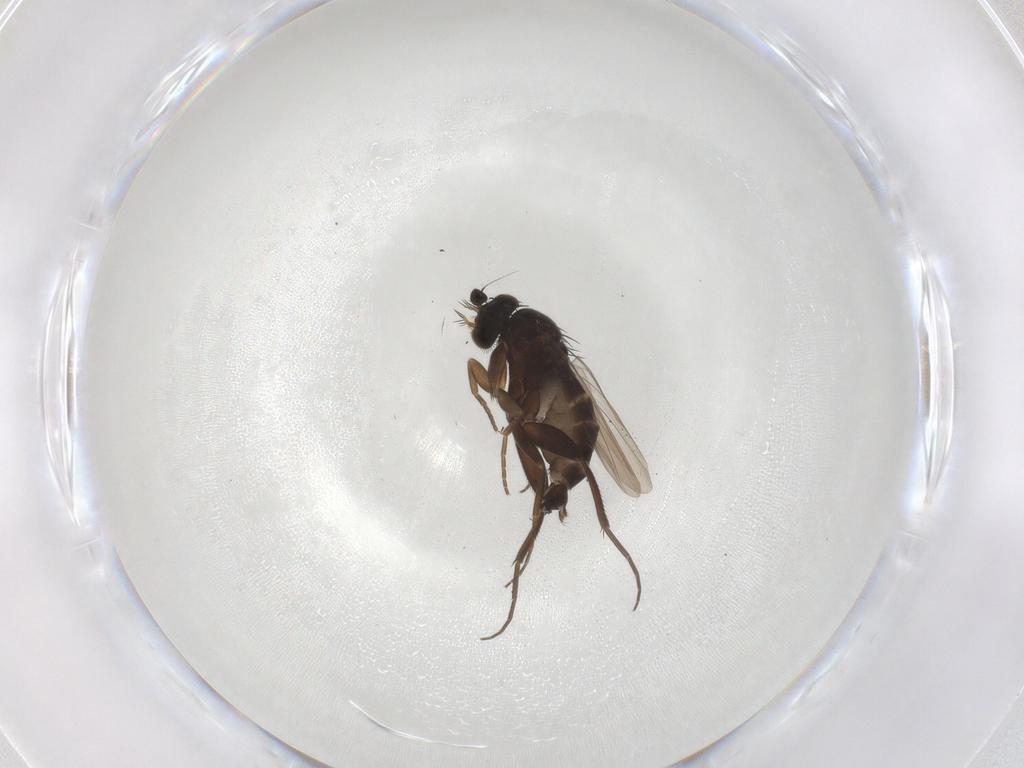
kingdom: Animalia
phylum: Arthropoda
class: Insecta
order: Diptera
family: Phoridae
